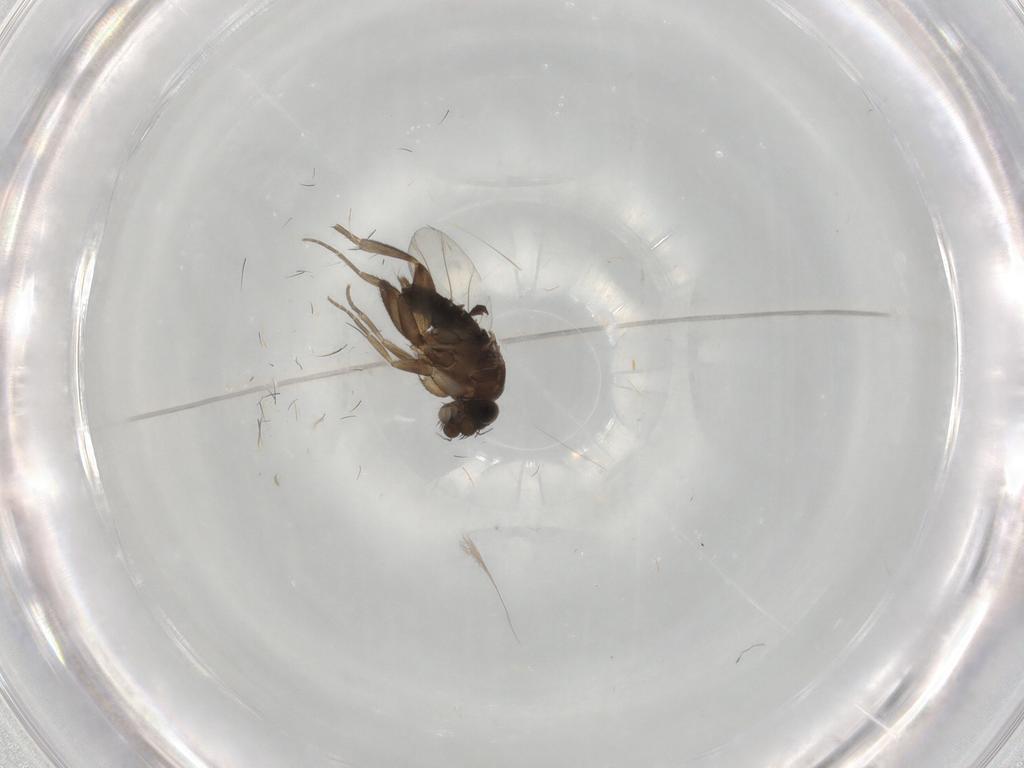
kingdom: Animalia
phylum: Arthropoda
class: Insecta
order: Diptera
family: Phoridae
